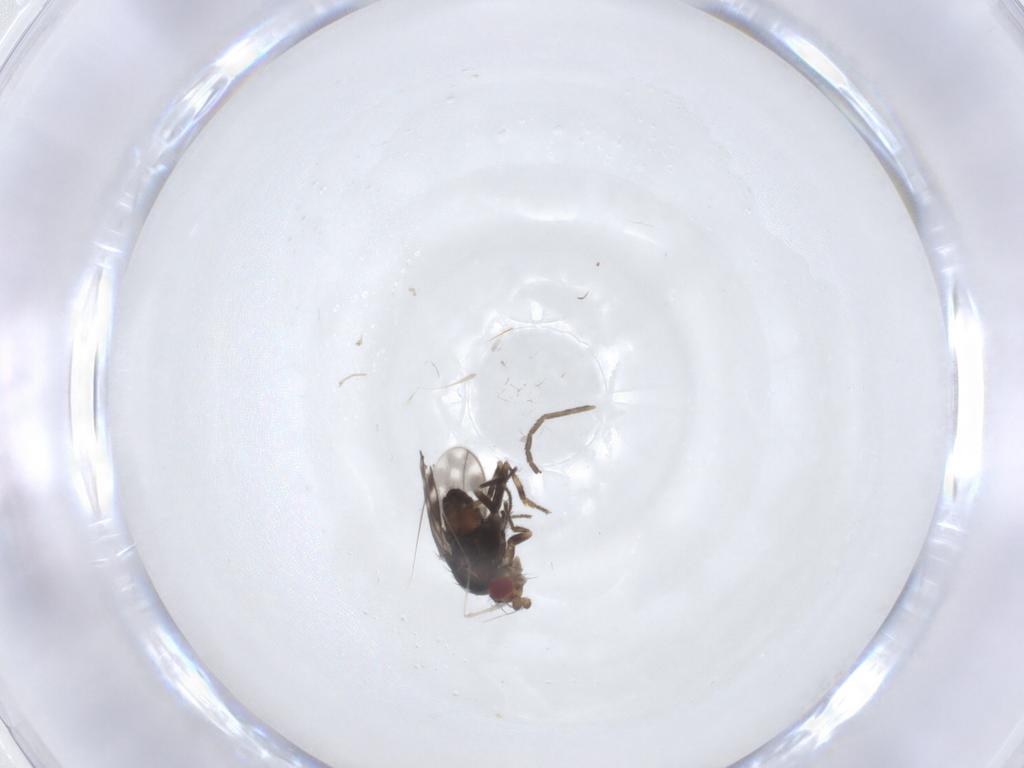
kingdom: Animalia
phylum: Arthropoda
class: Insecta
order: Diptera
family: Sphaeroceridae
